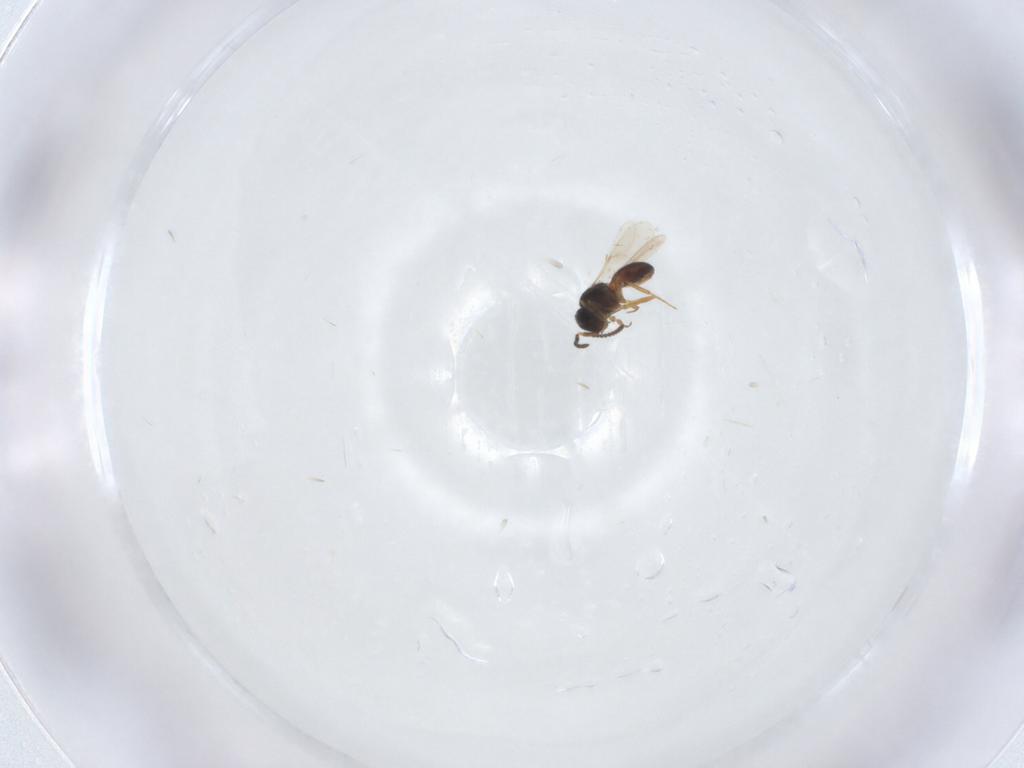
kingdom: Animalia
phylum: Arthropoda
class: Insecta
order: Hymenoptera
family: Scelionidae
